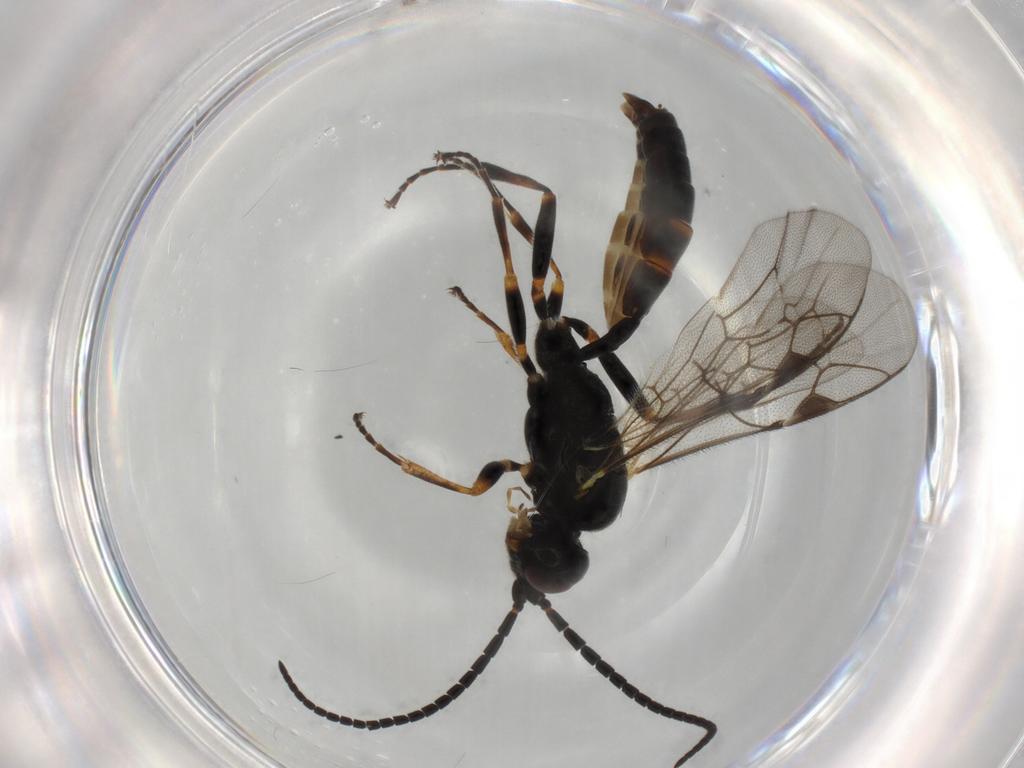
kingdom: Animalia
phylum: Arthropoda
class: Insecta
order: Hymenoptera
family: Ichneumonidae
